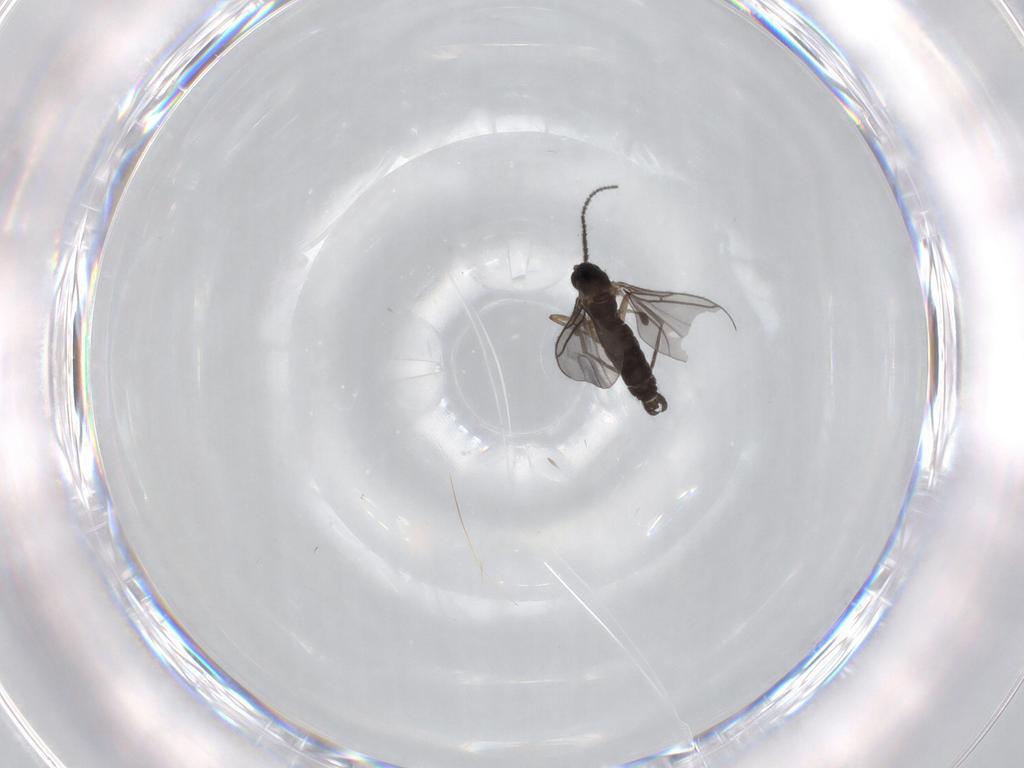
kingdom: Animalia
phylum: Arthropoda
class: Insecta
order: Diptera
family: Sciaridae
